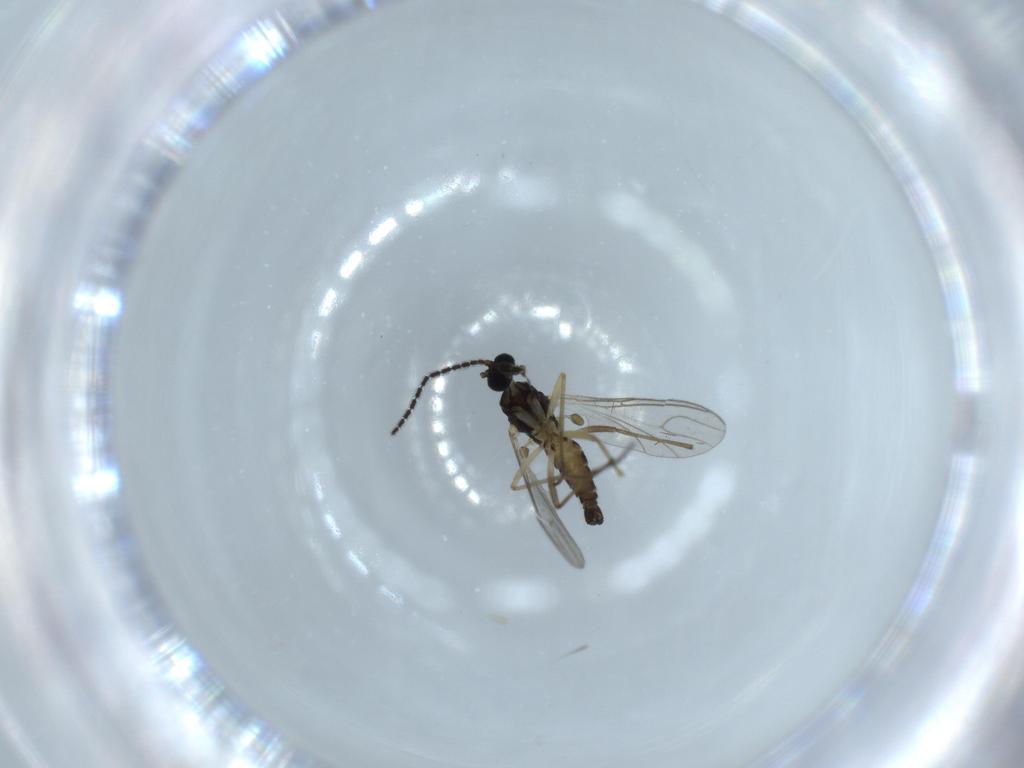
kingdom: Animalia
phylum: Arthropoda
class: Insecta
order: Diptera
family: Sciaridae
